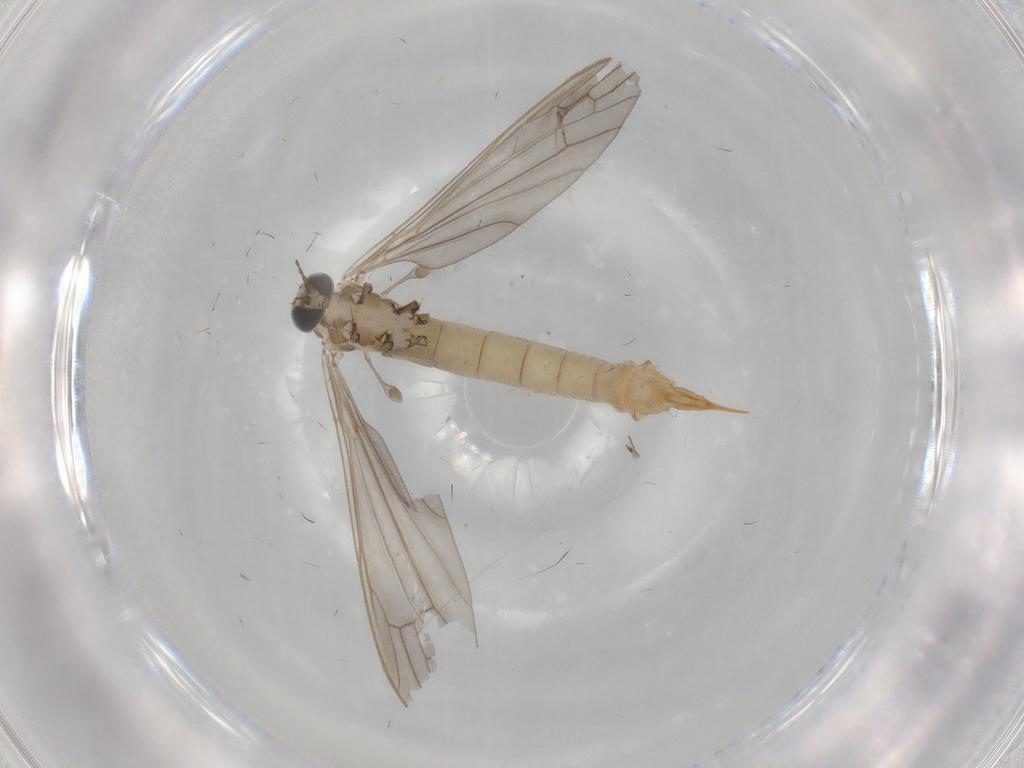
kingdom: Animalia
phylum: Arthropoda
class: Insecta
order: Diptera
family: Limoniidae
